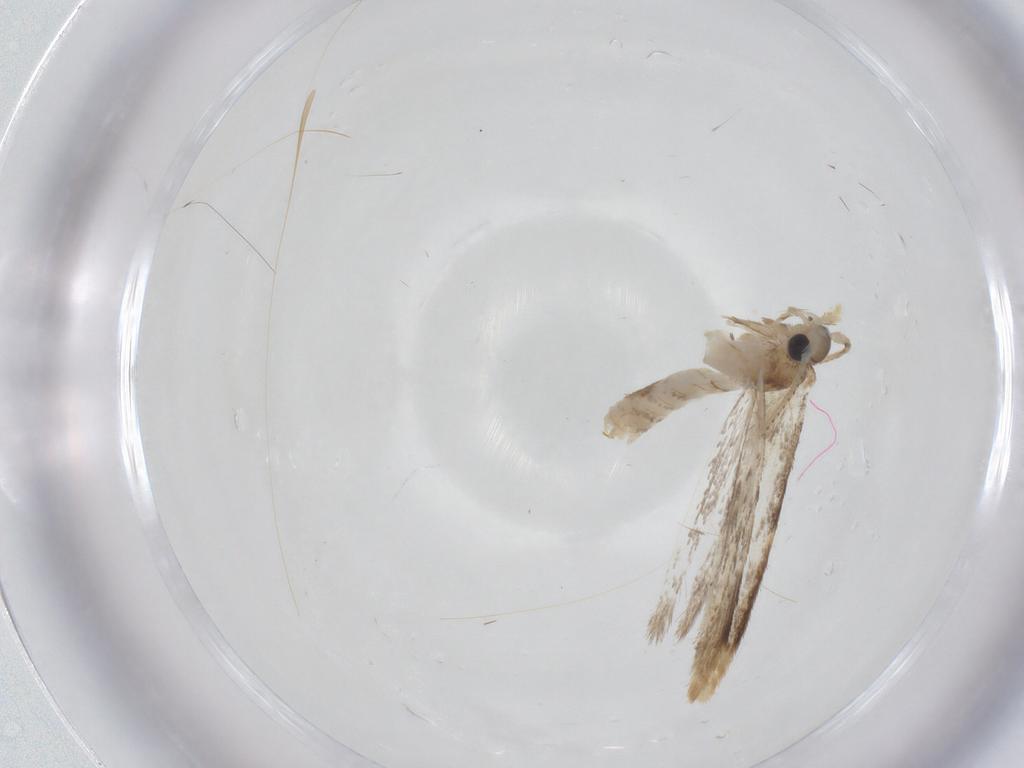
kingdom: Animalia
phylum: Arthropoda
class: Insecta
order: Lepidoptera
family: Dryadaulidae
